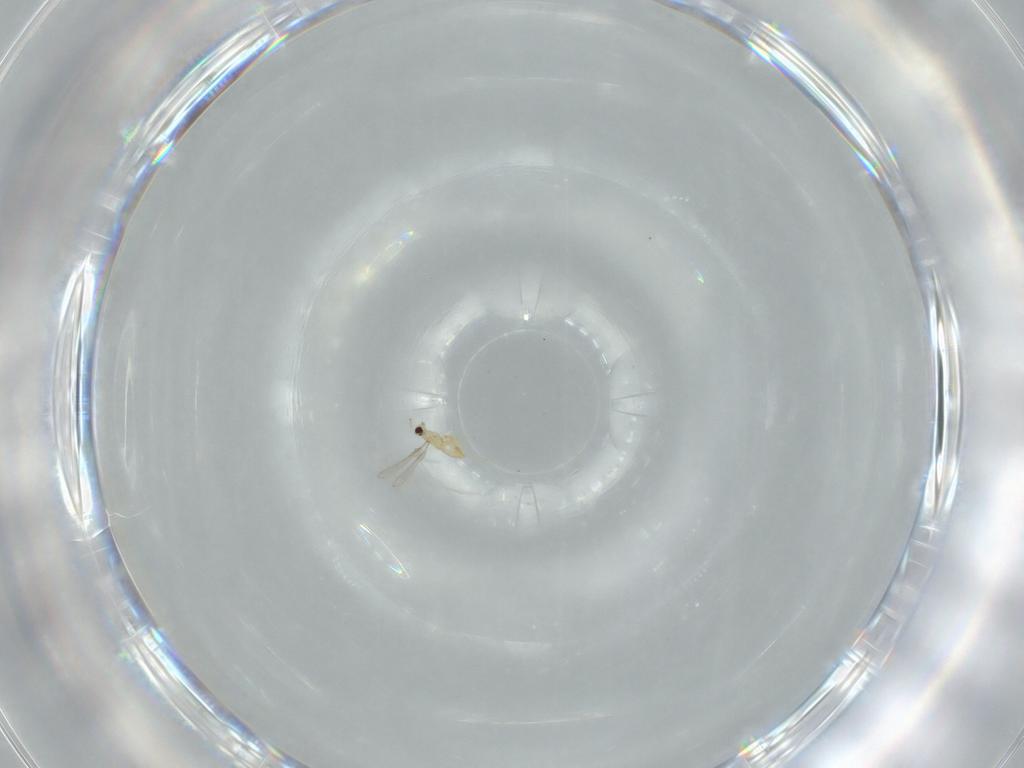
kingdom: Animalia
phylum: Arthropoda
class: Insecta
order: Hymenoptera
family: Mymaridae
